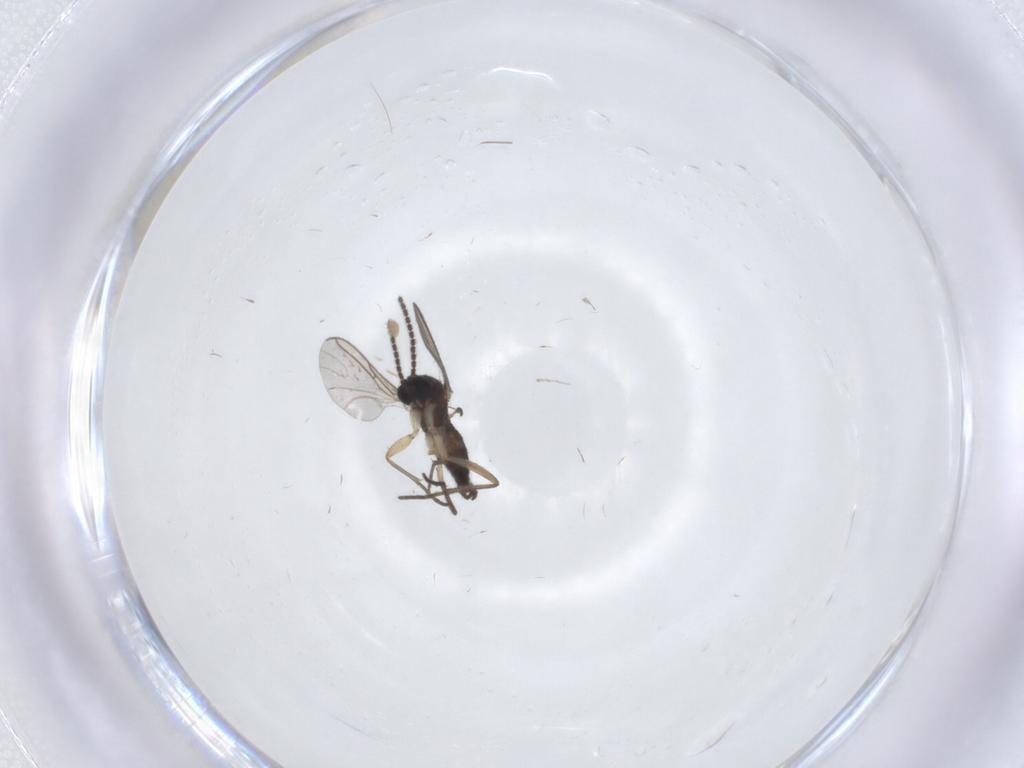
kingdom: Animalia
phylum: Arthropoda
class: Insecta
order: Diptera
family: Sciaridae
